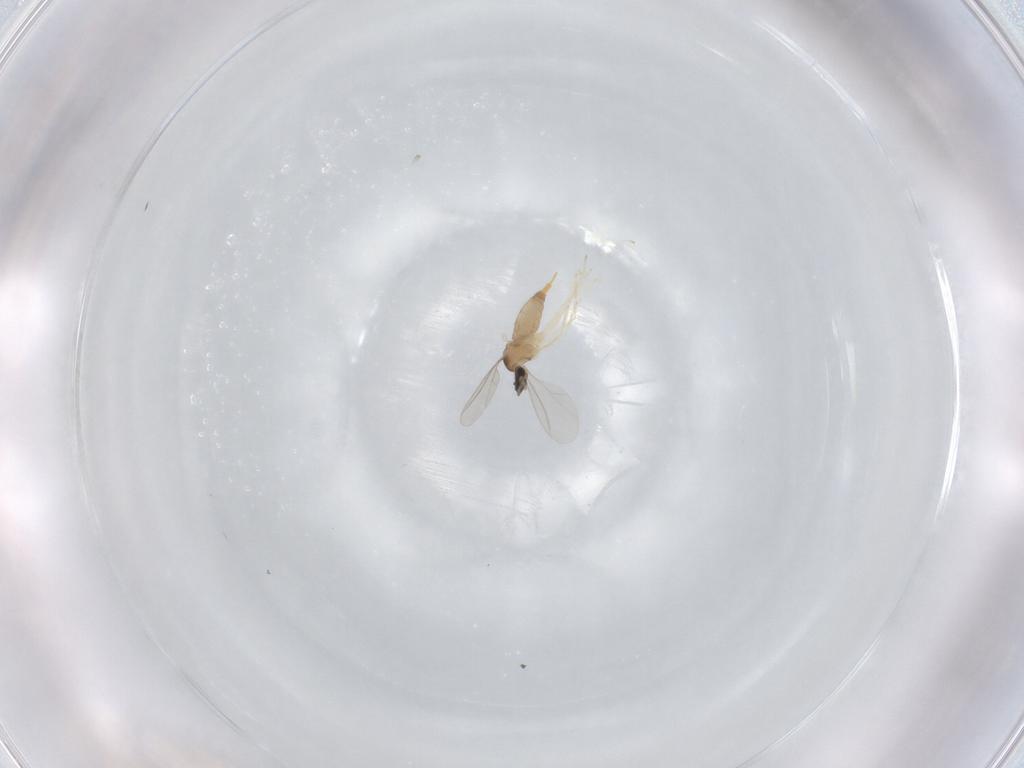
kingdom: Animalia
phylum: Arthropoda
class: Insecta
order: Diptera
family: Cecidomyiidae
